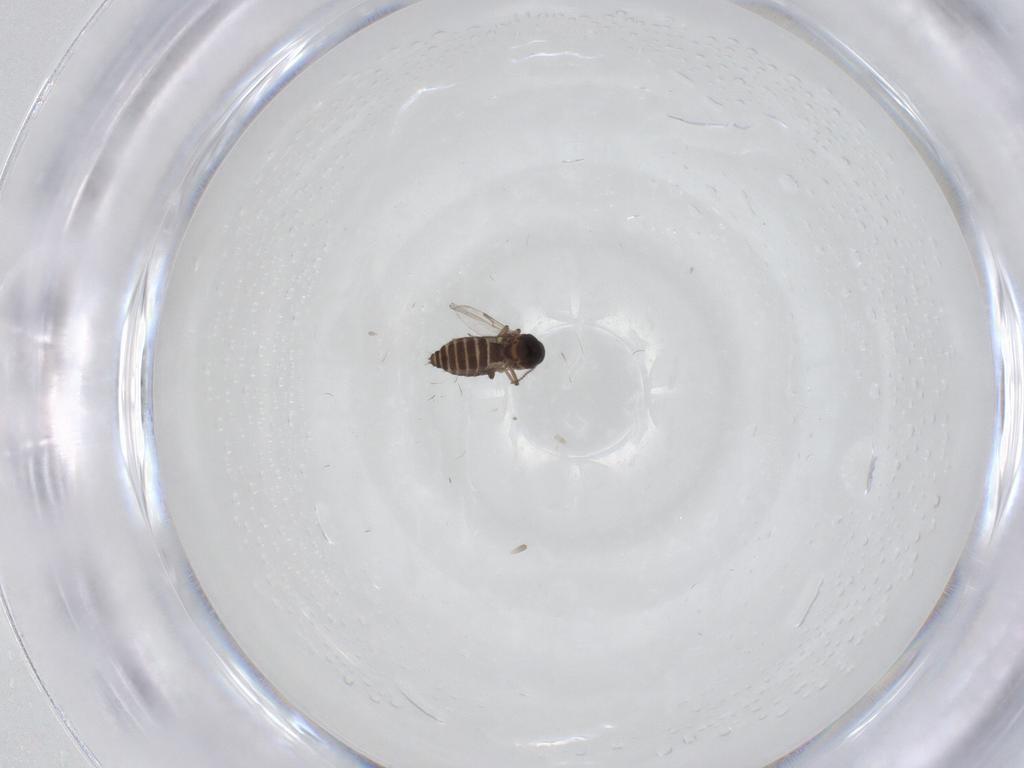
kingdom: Animalia
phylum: Arthropoda
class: Insecta
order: Diptera
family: Ceratopogonidae
